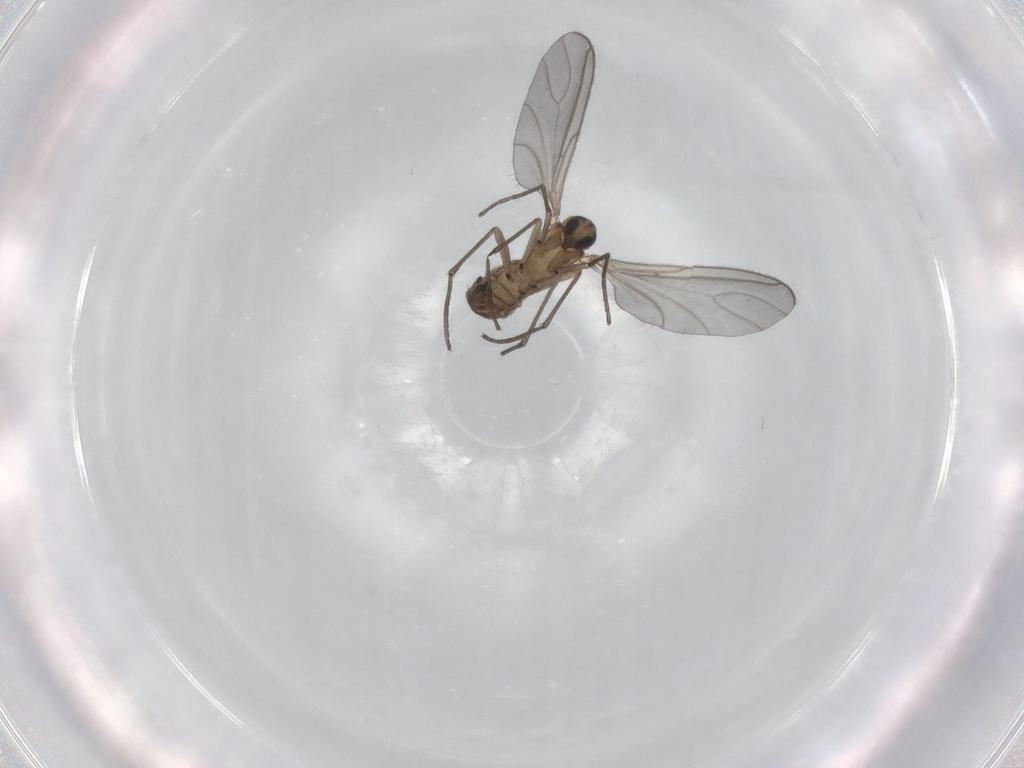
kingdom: Animalia
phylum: Arthropoda
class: Insecta
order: Diptera
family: Sciaridae
